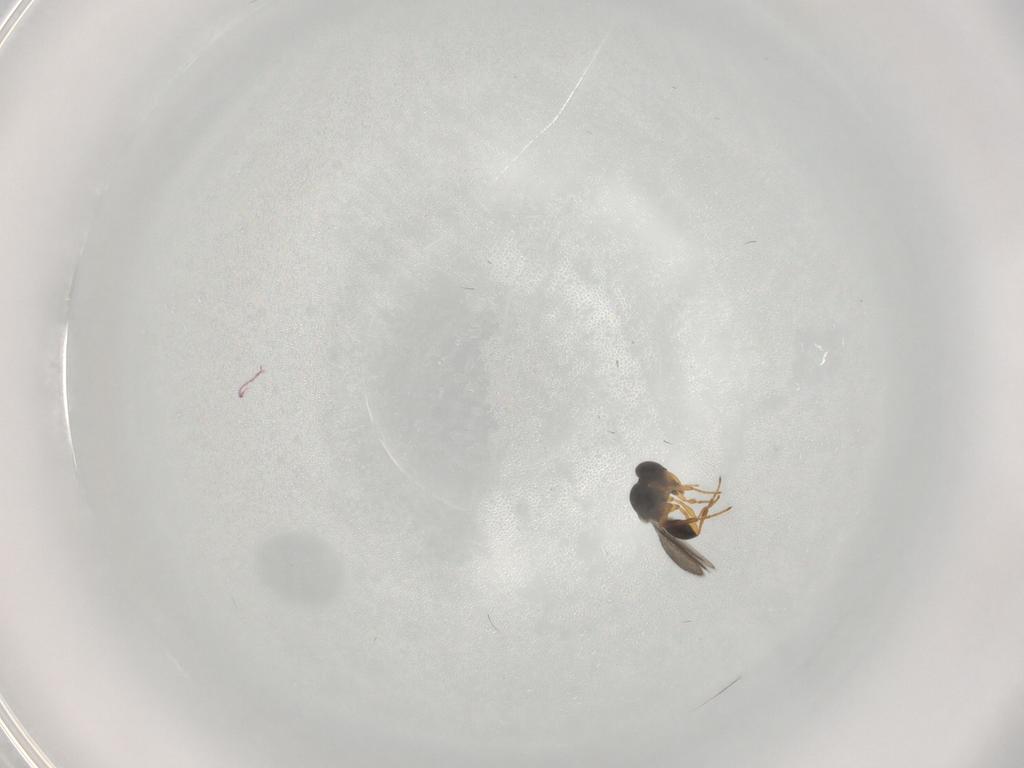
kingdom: Animalia
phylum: Arthropoda
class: Insecta
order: Hymenoptera
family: Platygastridae
